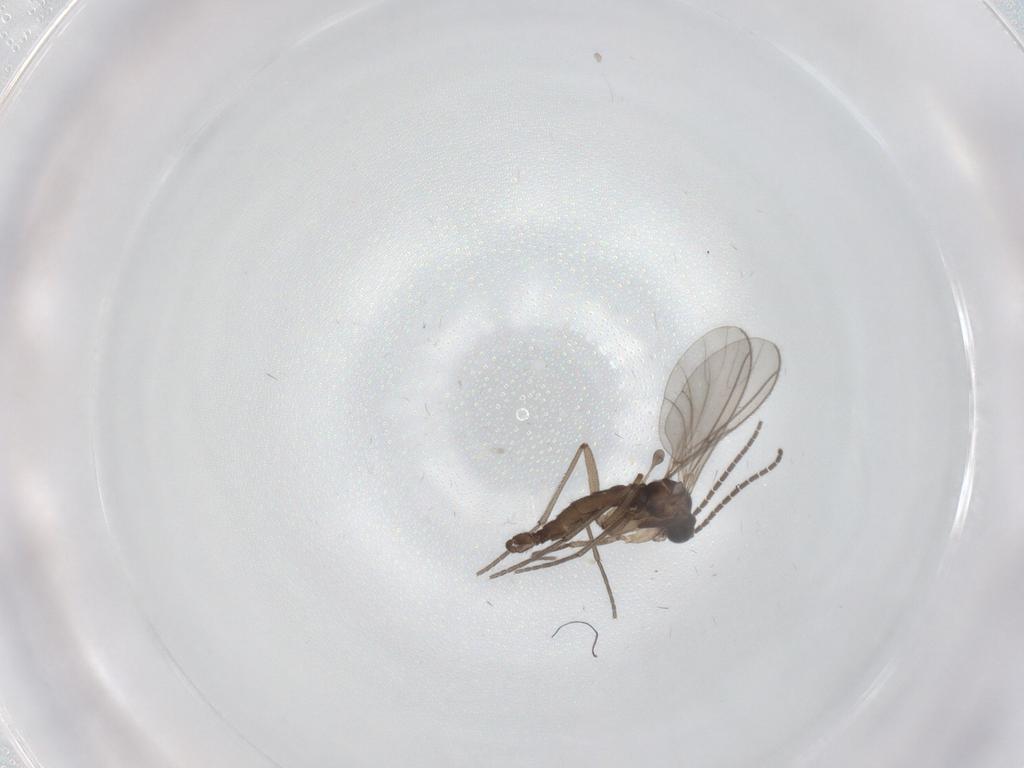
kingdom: Animalia
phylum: Arthropoda
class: Insecta
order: Diptera
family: Sciaridae
